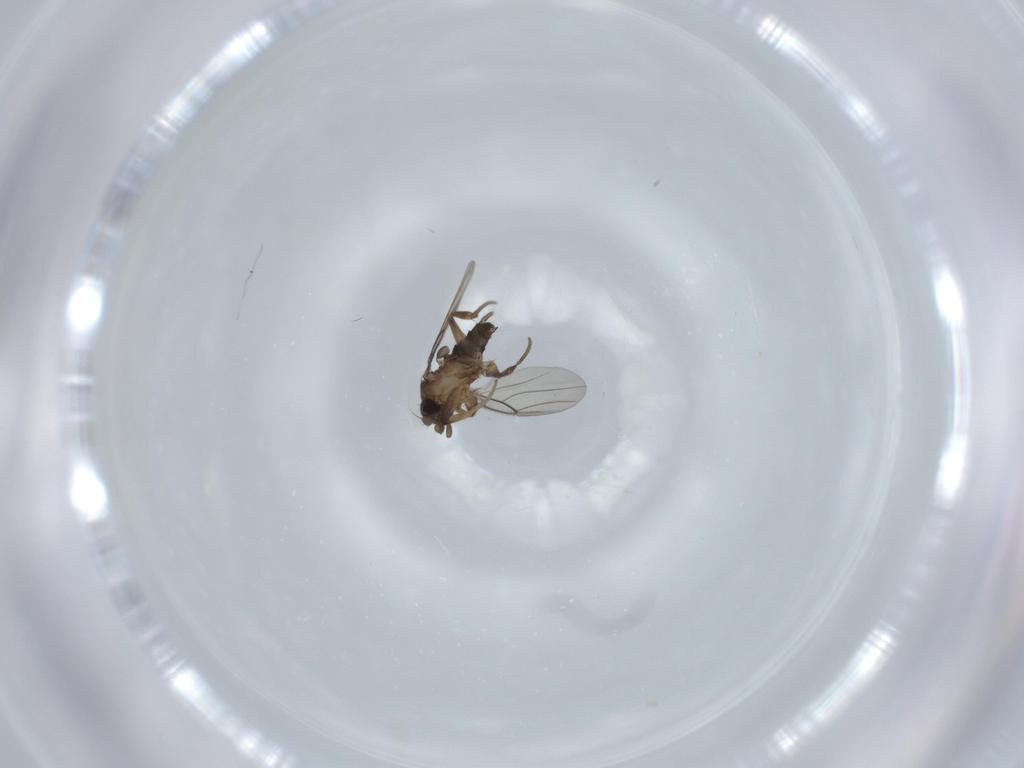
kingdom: Animalia
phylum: Arthropoda
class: Insecta
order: Diptera
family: Phoridae
